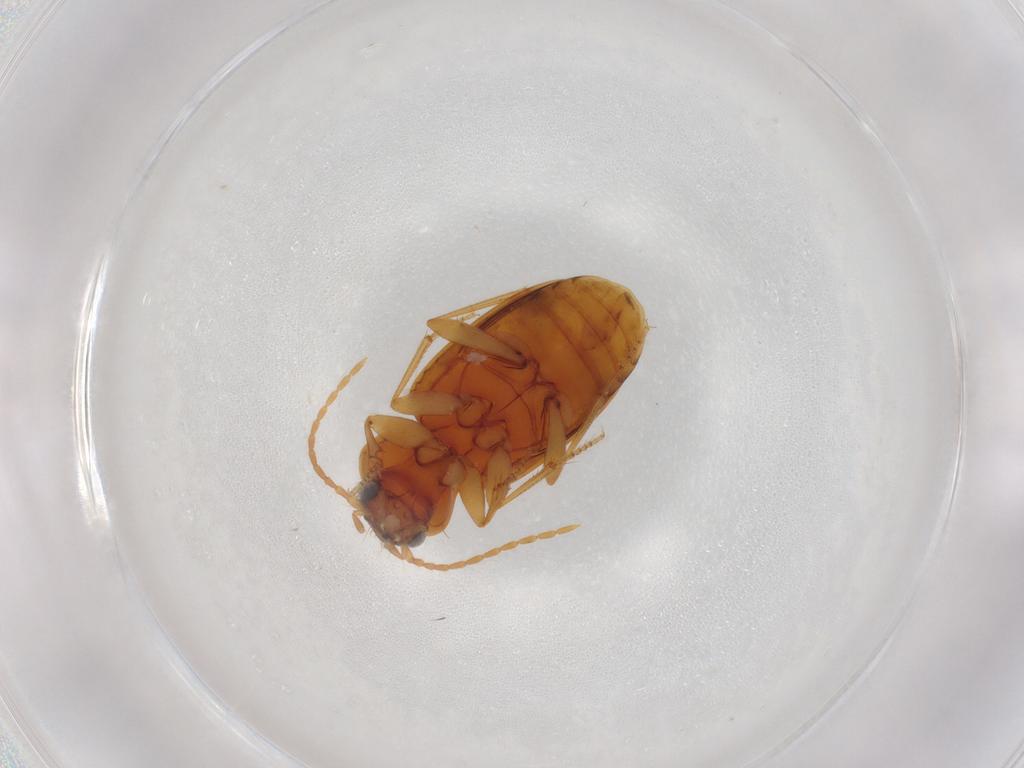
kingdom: Animalia
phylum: Arthropoda
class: Insecta
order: Coleoptera
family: Carabidae
